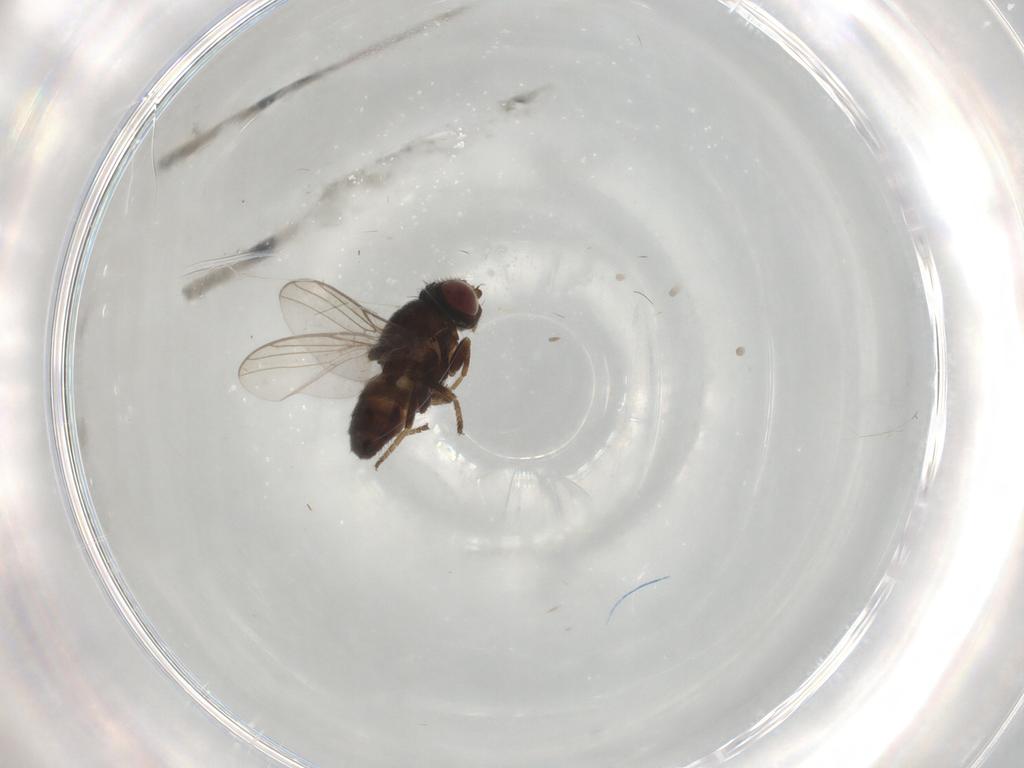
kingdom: Animalia
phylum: Arthropoda
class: Insecta
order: Diptera
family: Chloropidae
